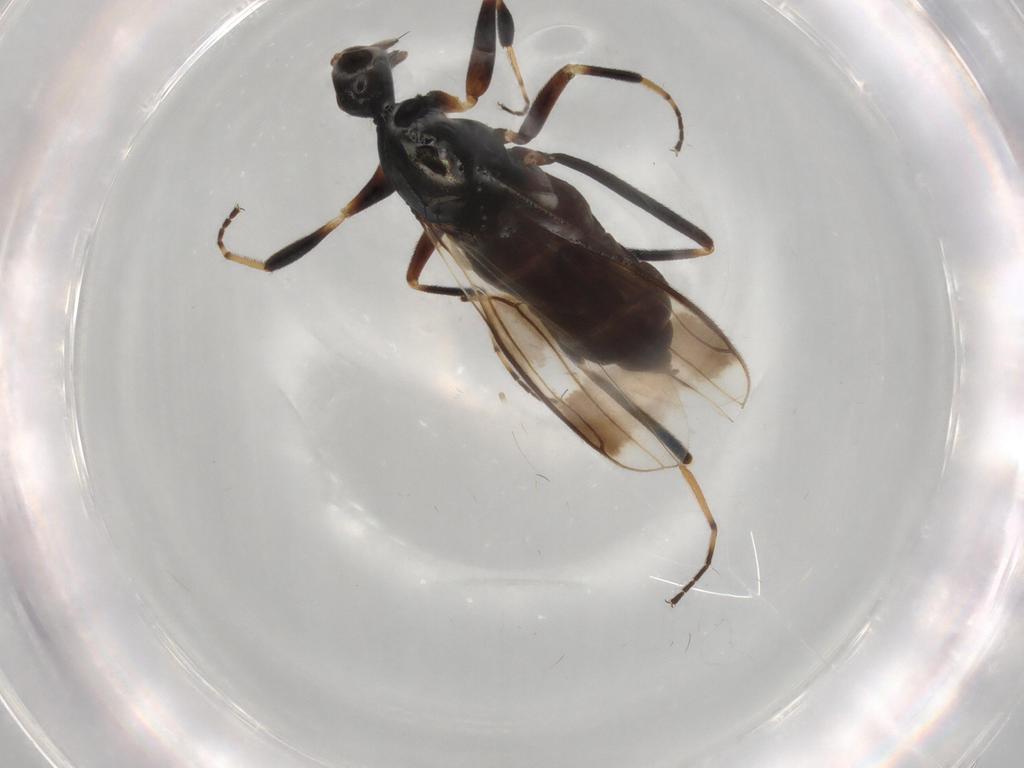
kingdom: Animalia
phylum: Arthropoda
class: Insecta
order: Diptera
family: Hybotidae
